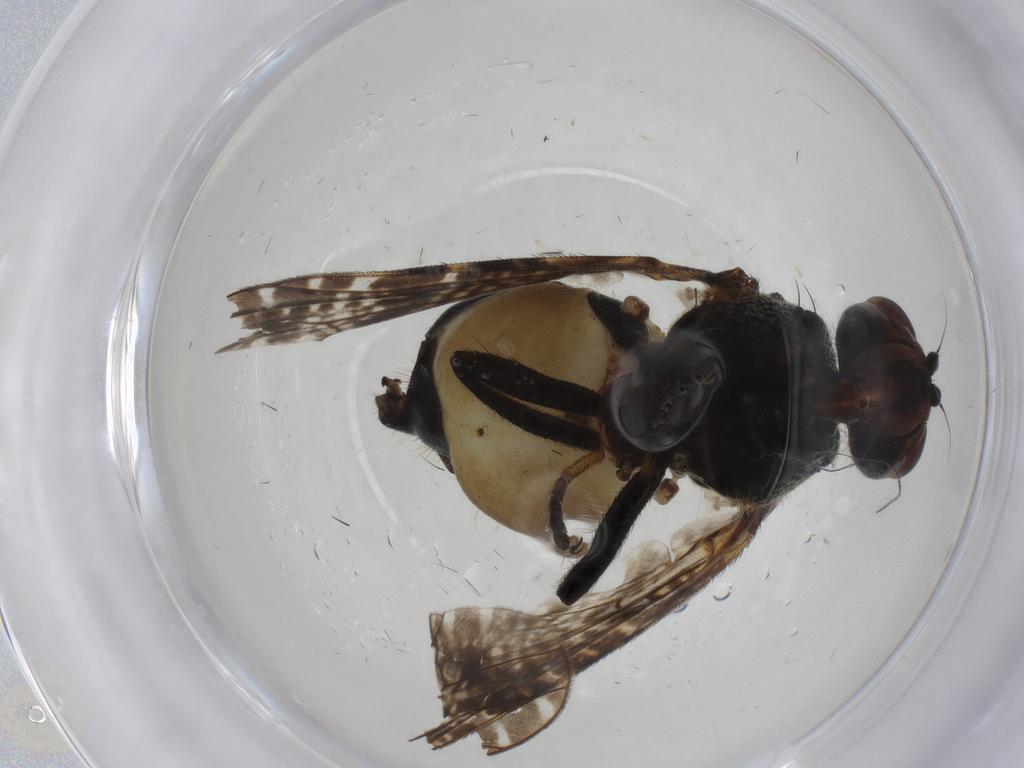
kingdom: Animalia
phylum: Arthropoda
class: Insecta
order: Diptera
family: Platystomatidae
